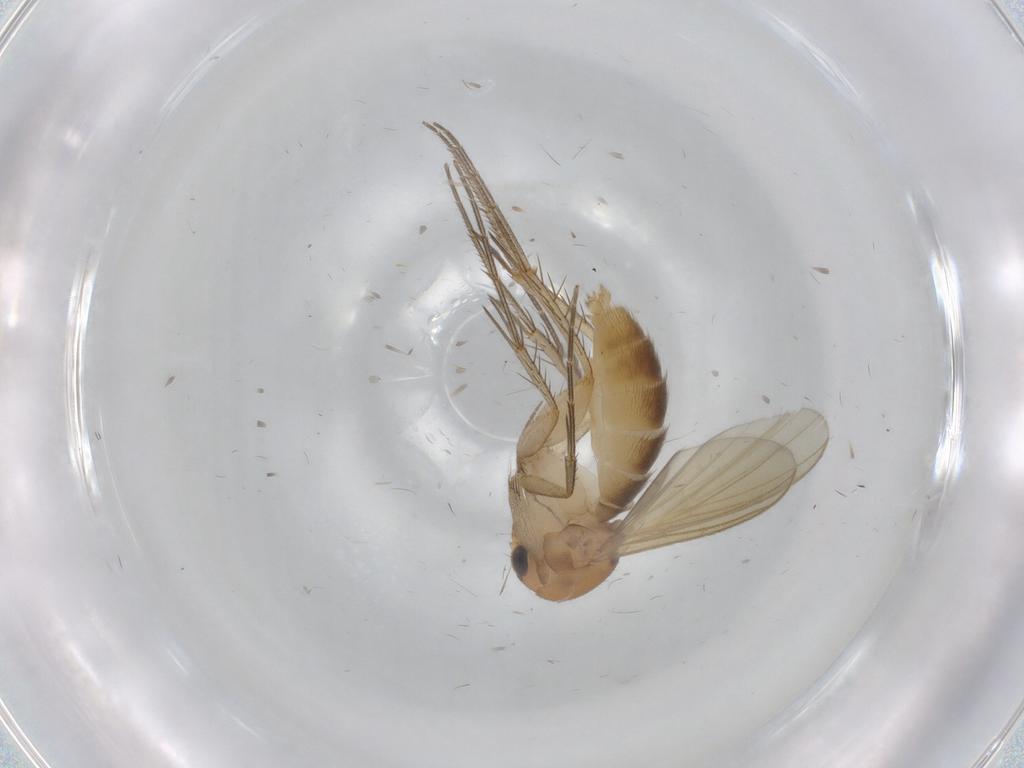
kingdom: Animalia
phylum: Arthropoda
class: Insecta
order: Diptera
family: Mycetophilidae
